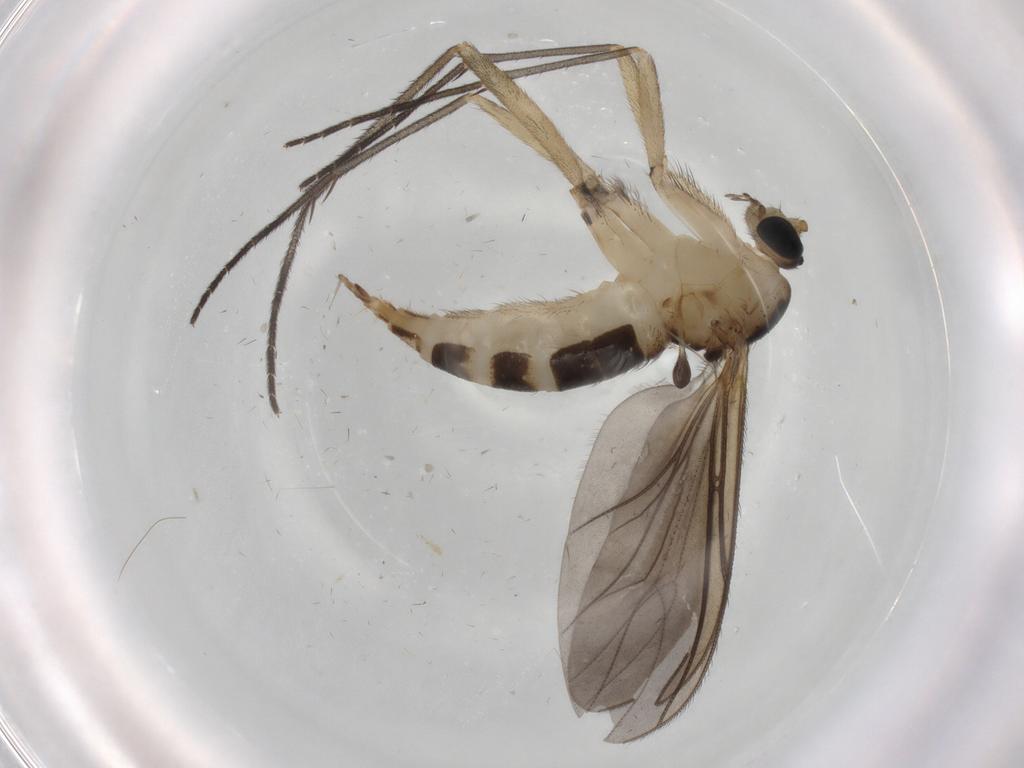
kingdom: Animalia
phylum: Arthropoda
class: Insecta
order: Diptera
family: Sciaridae
